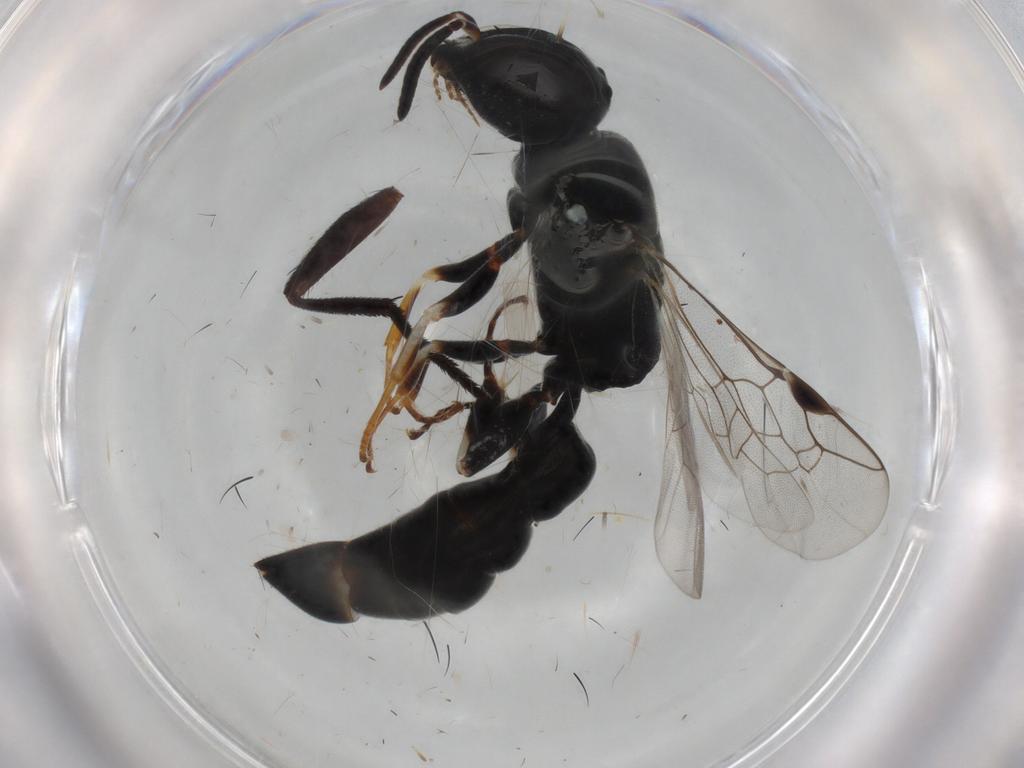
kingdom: Animalia
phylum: Arthropoda
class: Insecta
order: Hymenoptera
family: Crabronidae
